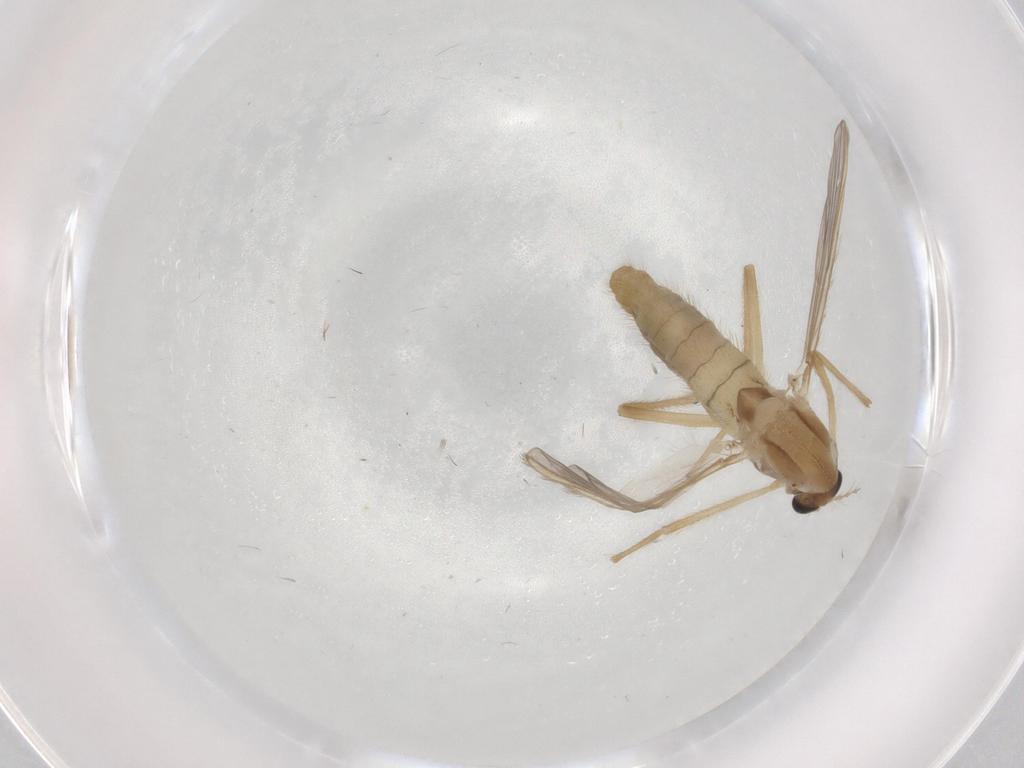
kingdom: Animalia
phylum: Arthropoda
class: Insecta
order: Diptera
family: Chironomidae
